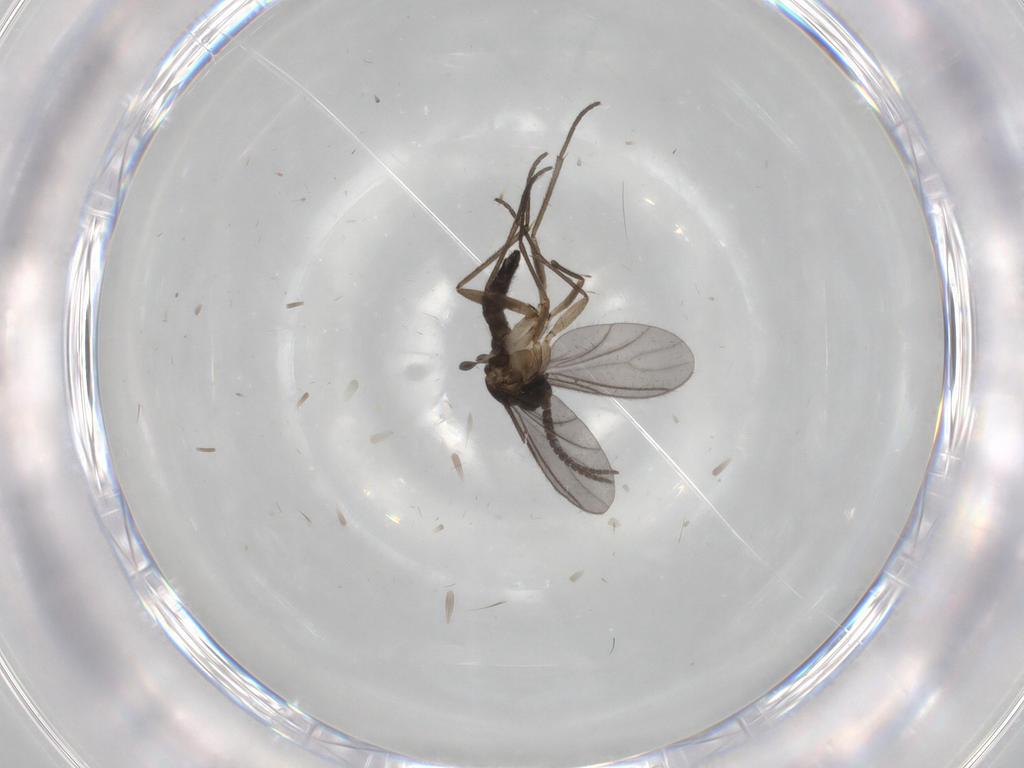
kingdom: Animalia
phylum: Arthropoda
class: Insecta
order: Diptera
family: Sciaridae
